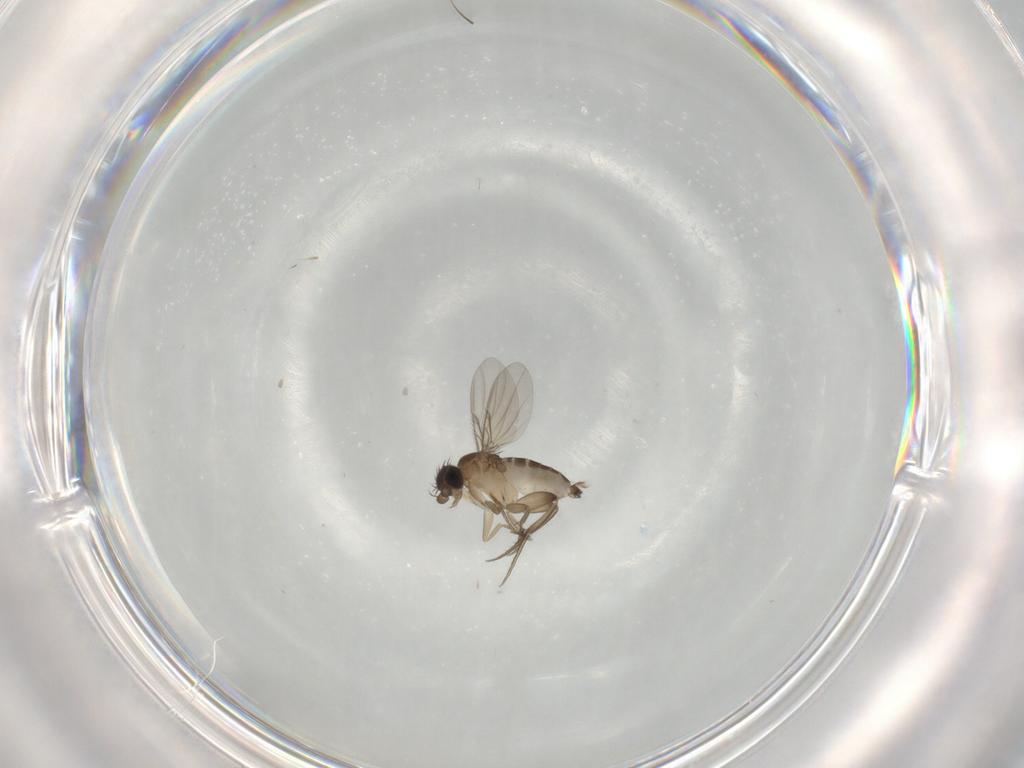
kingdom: Animalia
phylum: Arthropoda
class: Insecta
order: Diptera
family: Phoridae
